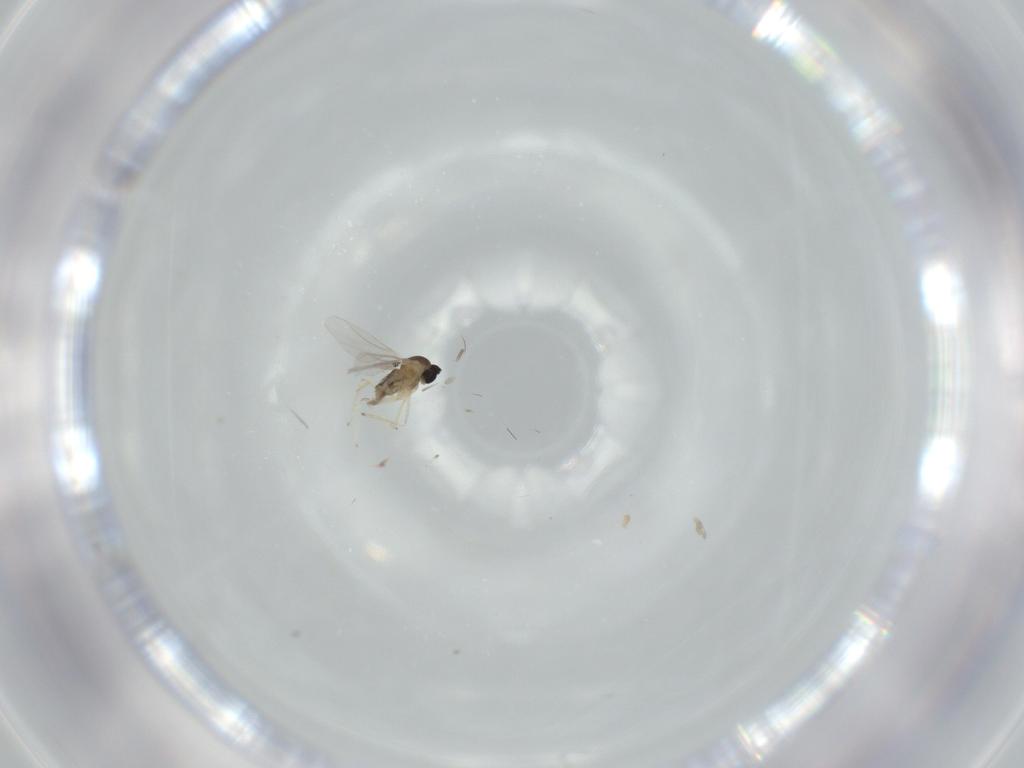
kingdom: Animalia
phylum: Arthropoda
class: Insecta
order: Diptera
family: Cecidomyiidae
